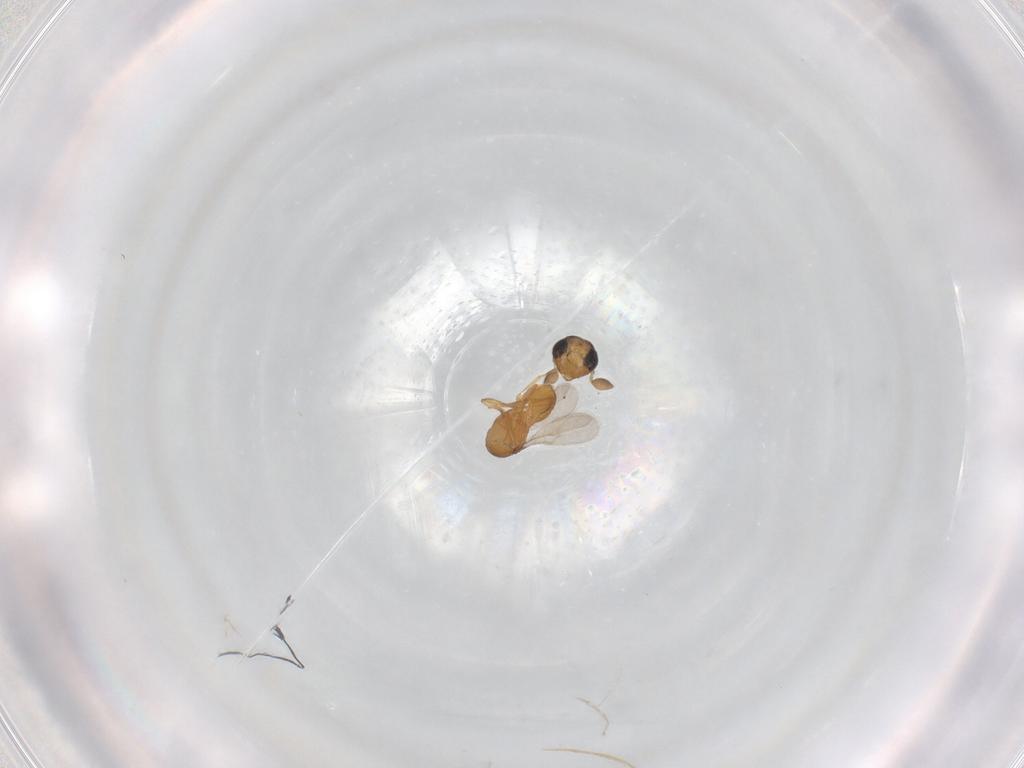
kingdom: Animalia
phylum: Arthropoda
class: Insecta
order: Hymenoptera
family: Scelionidae
